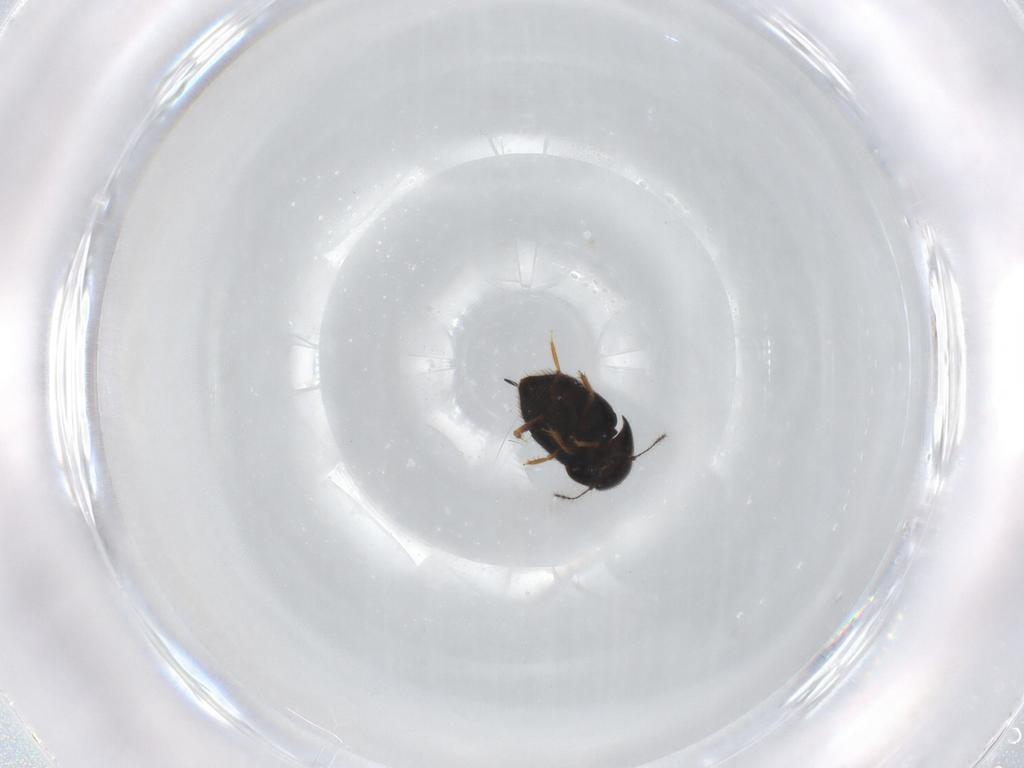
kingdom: Animalia
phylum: Arthropoda
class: Insecta
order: Coleoptera
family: Ptiliidae
